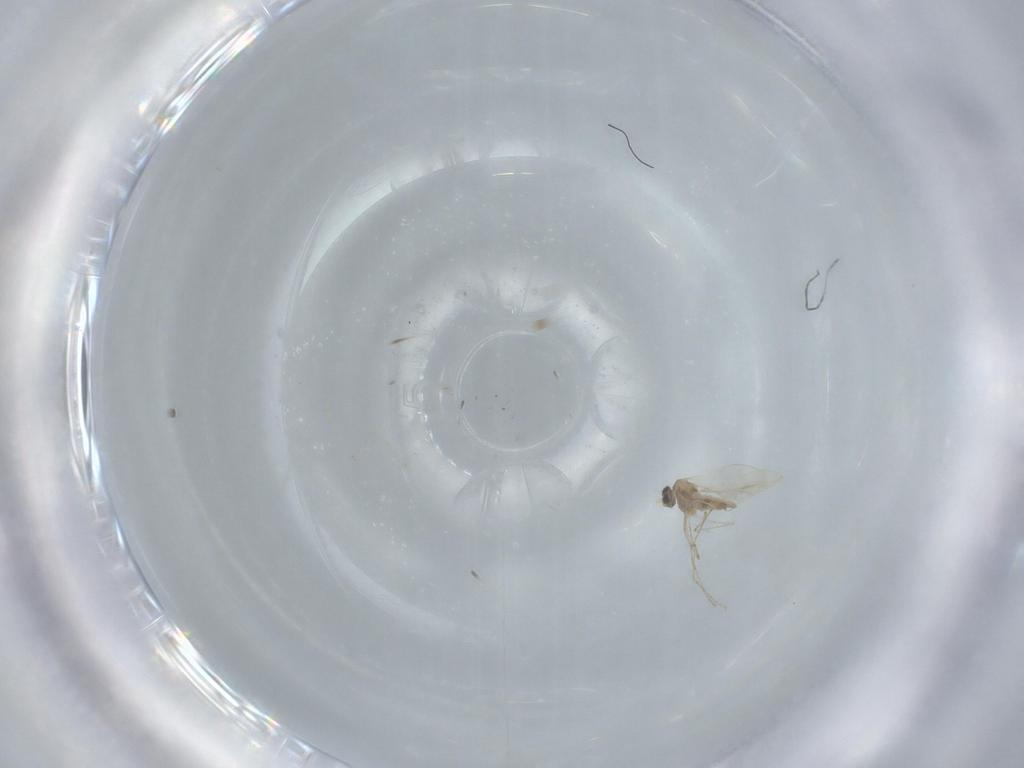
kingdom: Animalia
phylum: Arthropoda
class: Insecta
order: Diptera
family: Cecidomyiidae
